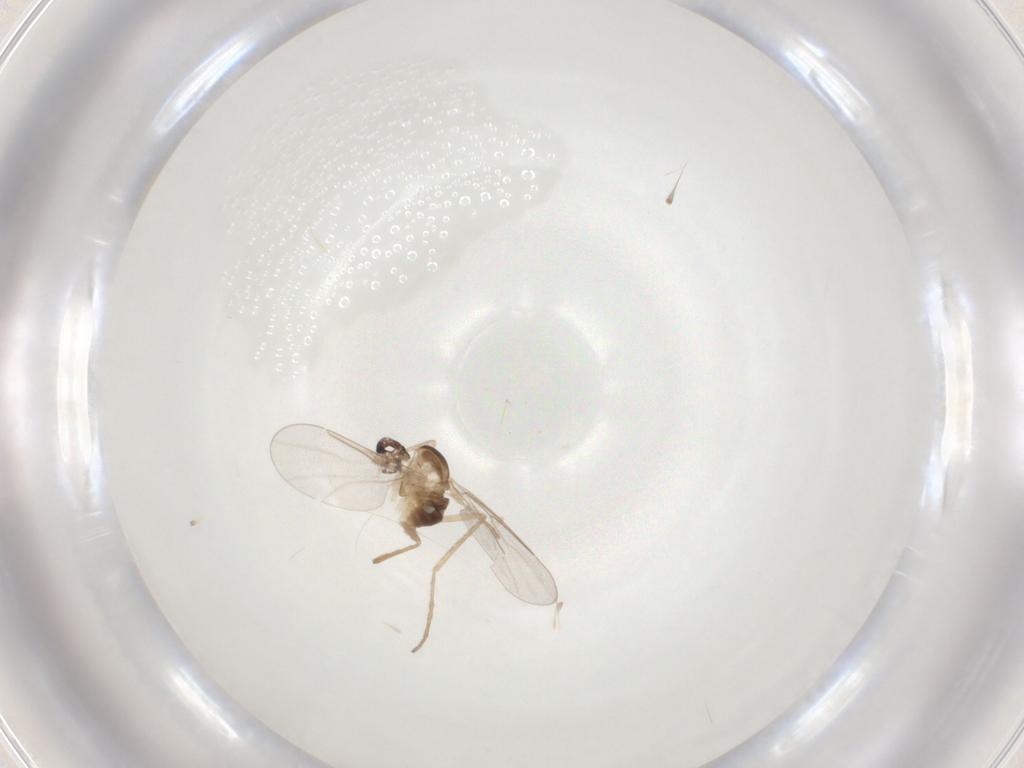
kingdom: Animalia
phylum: Arthropoda
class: Insecta
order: Diptera
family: Cecidomyiidae
